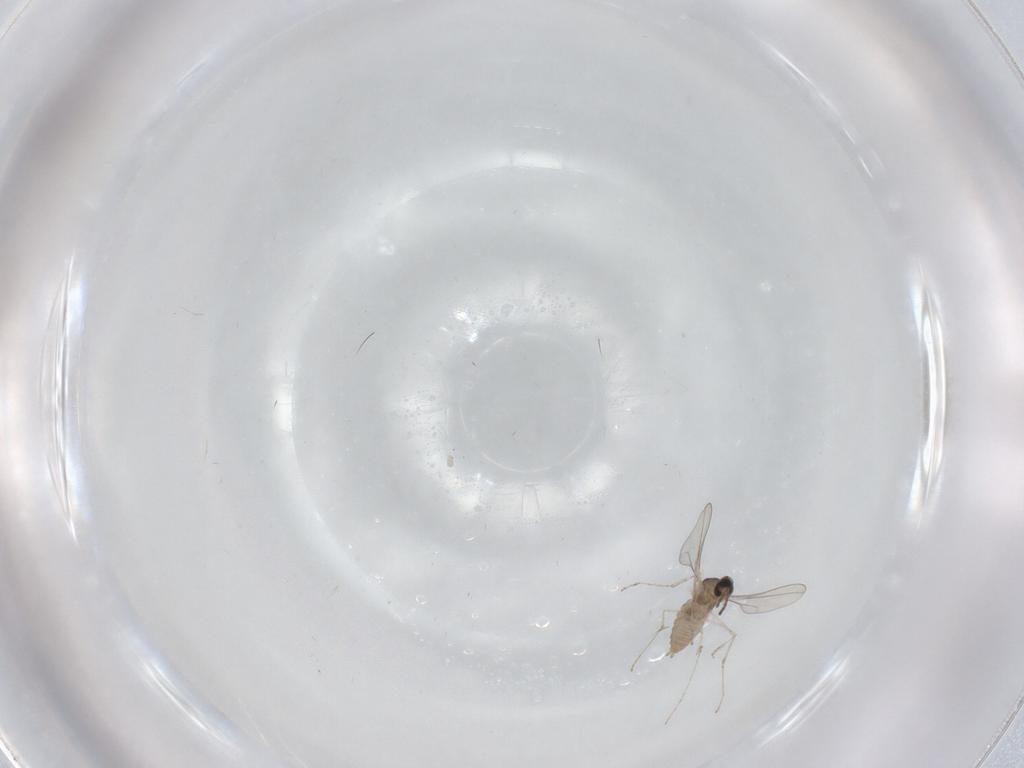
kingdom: Animalia
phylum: Arthropoda
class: Insecta
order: Diptera
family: Cecidomyiidae
